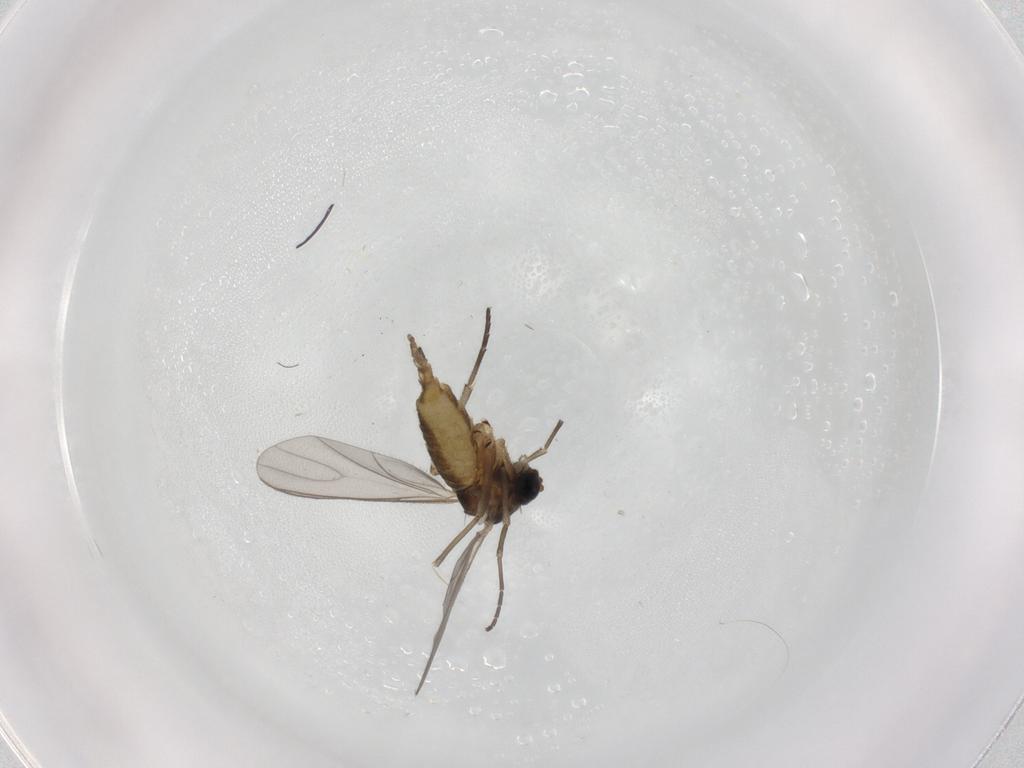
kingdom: Animalia
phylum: Arthropoda
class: Insecta
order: Diptera
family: Sciaridae
